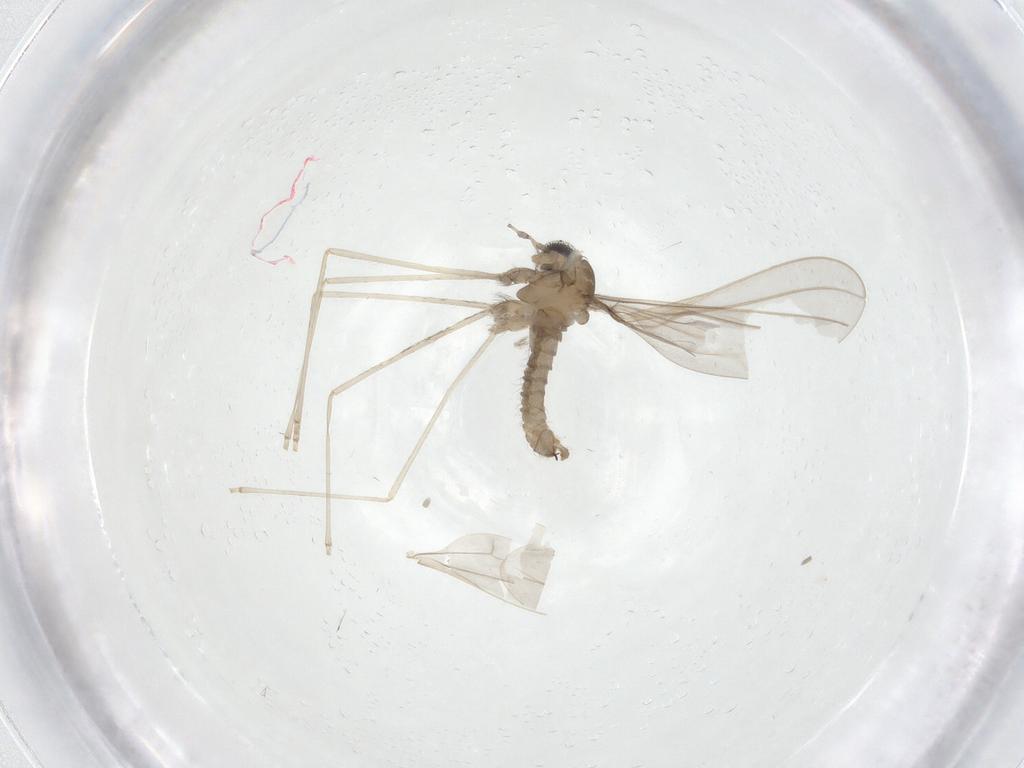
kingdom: Animalia
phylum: Arthropoda
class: Insecta
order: Diptera
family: Cecidomyiidae
